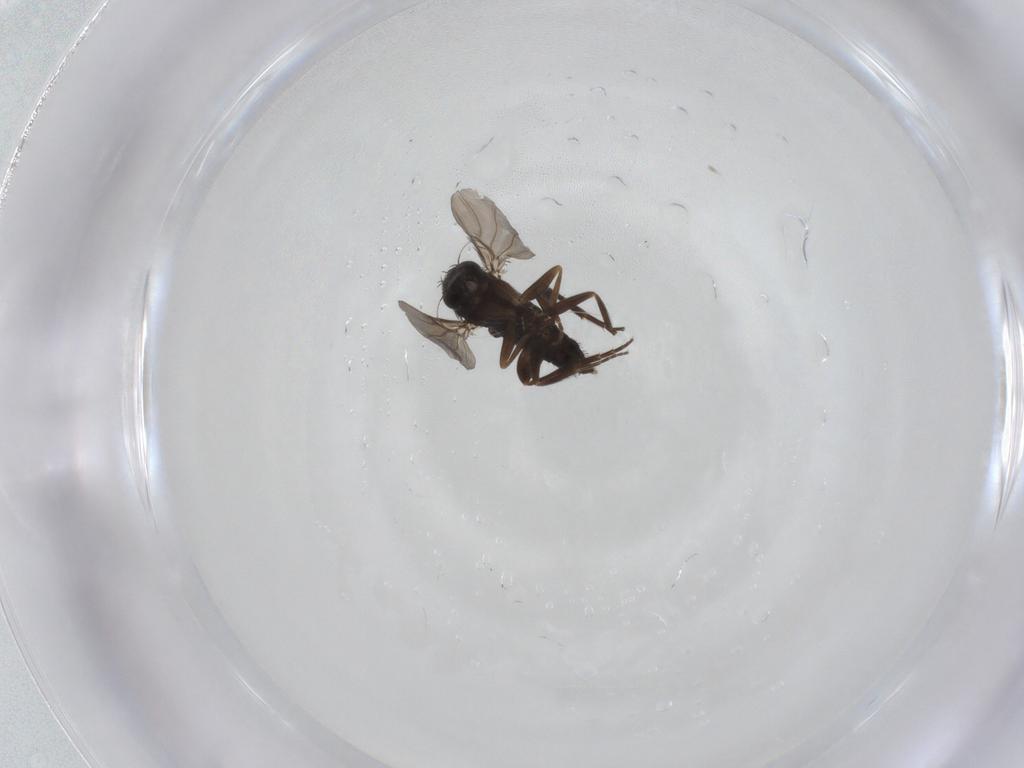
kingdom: Animalia
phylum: Arthropoda
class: Insecta
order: Diptera
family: Phoridae
